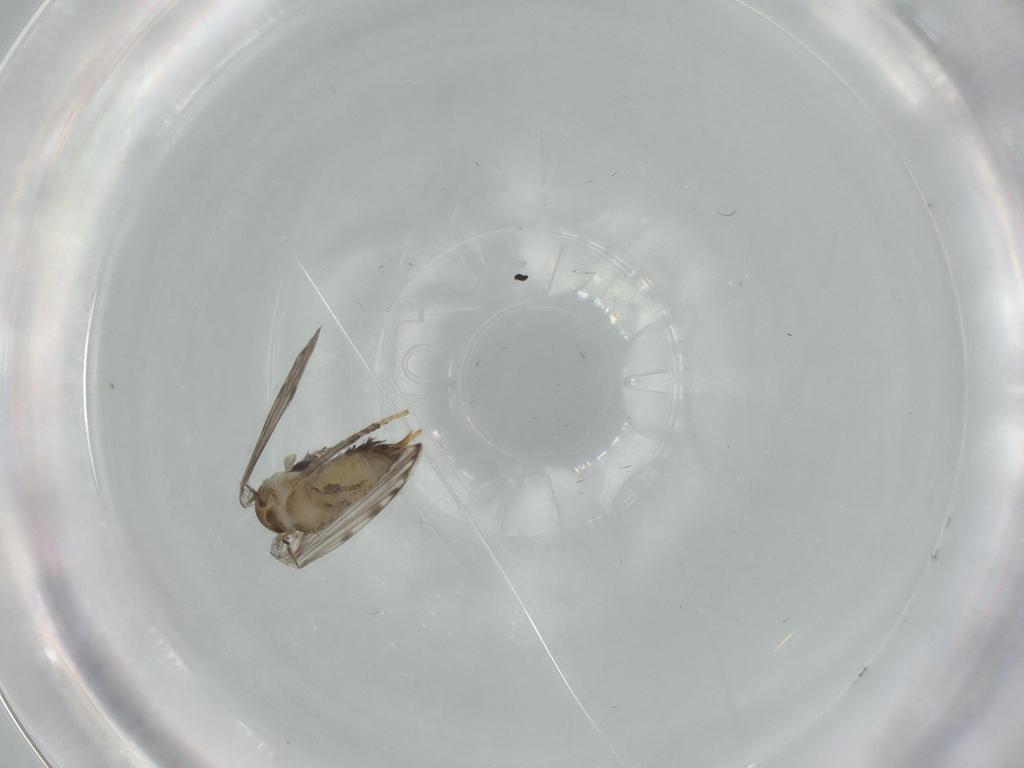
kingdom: Animalia
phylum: Arthropoda
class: Insecta
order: Diptera
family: Psychodidae
